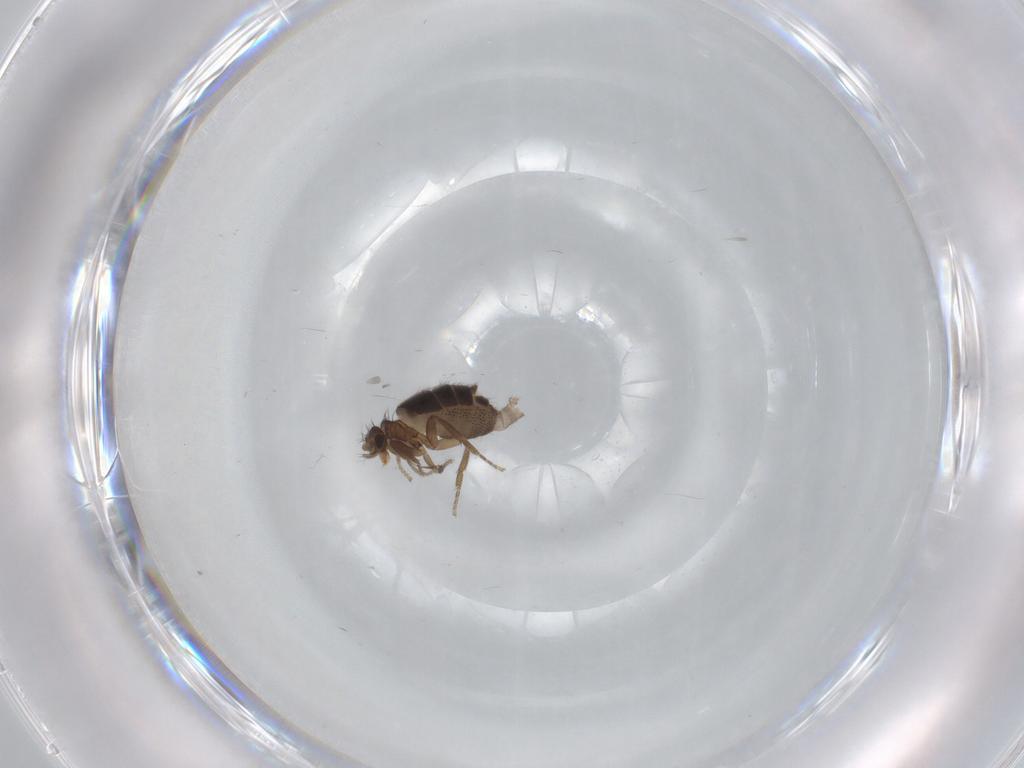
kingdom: Animalia
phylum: Arthropoda
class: Insecta
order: Diptera
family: Phoridae
